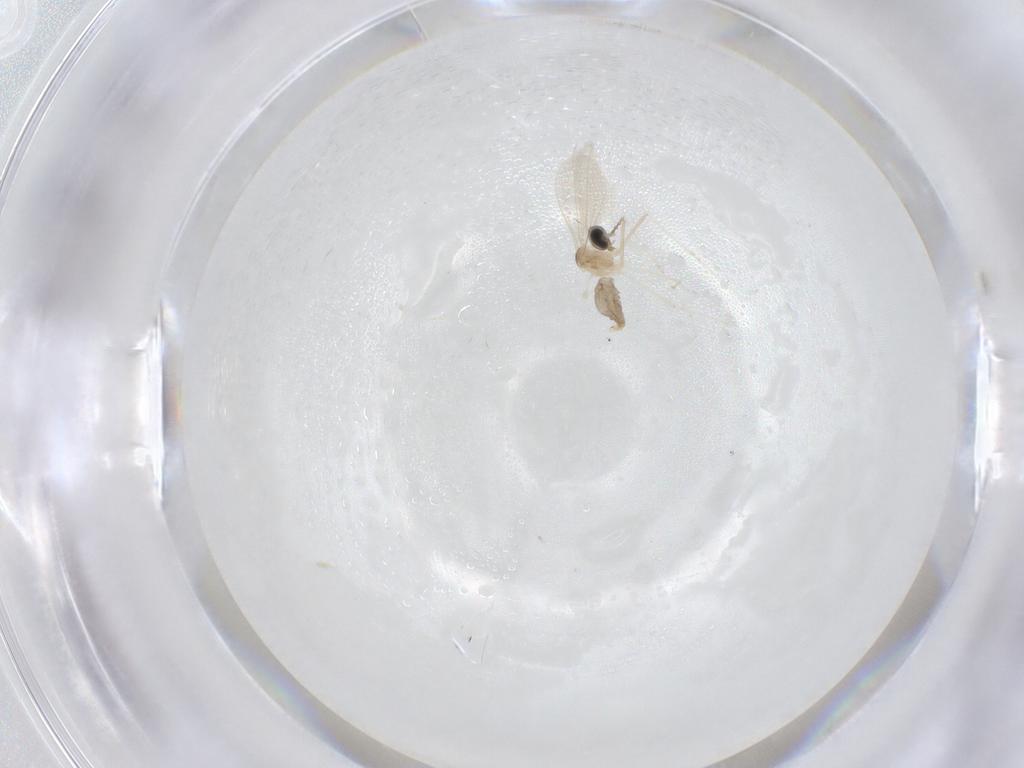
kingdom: Animalia
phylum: Arthropoda
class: Insecta
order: Diptera
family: Cecidomyiidae
